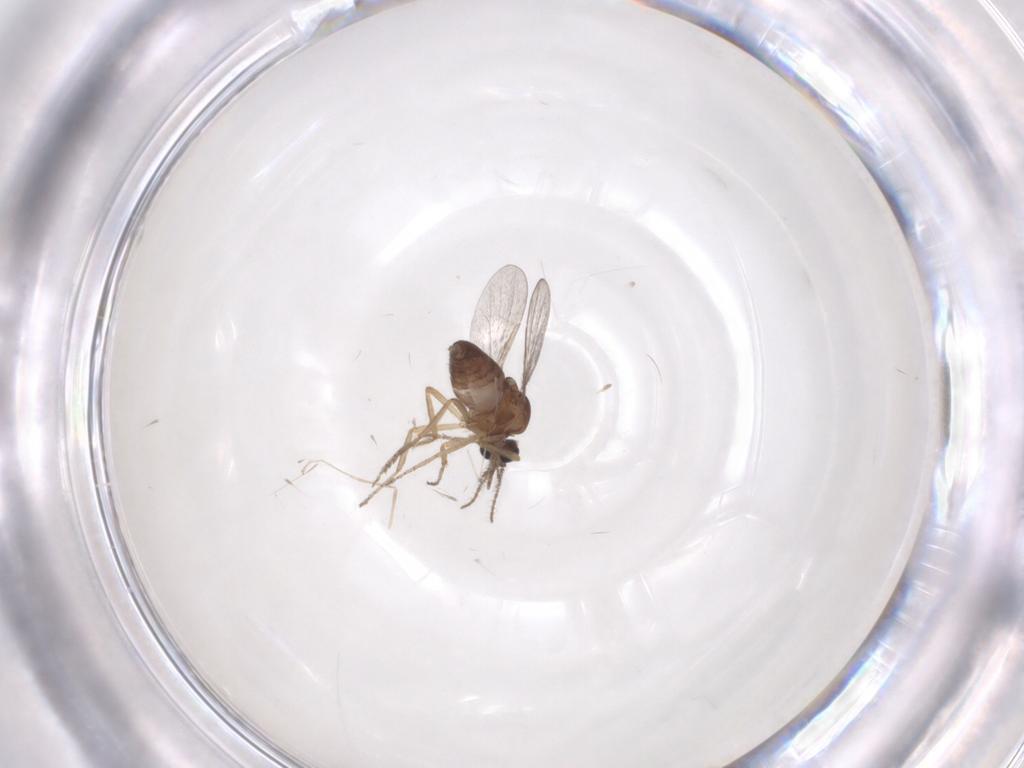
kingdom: Animalia
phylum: Arthropoda
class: Insecta
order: Diptera
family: Ceratopogonidae
